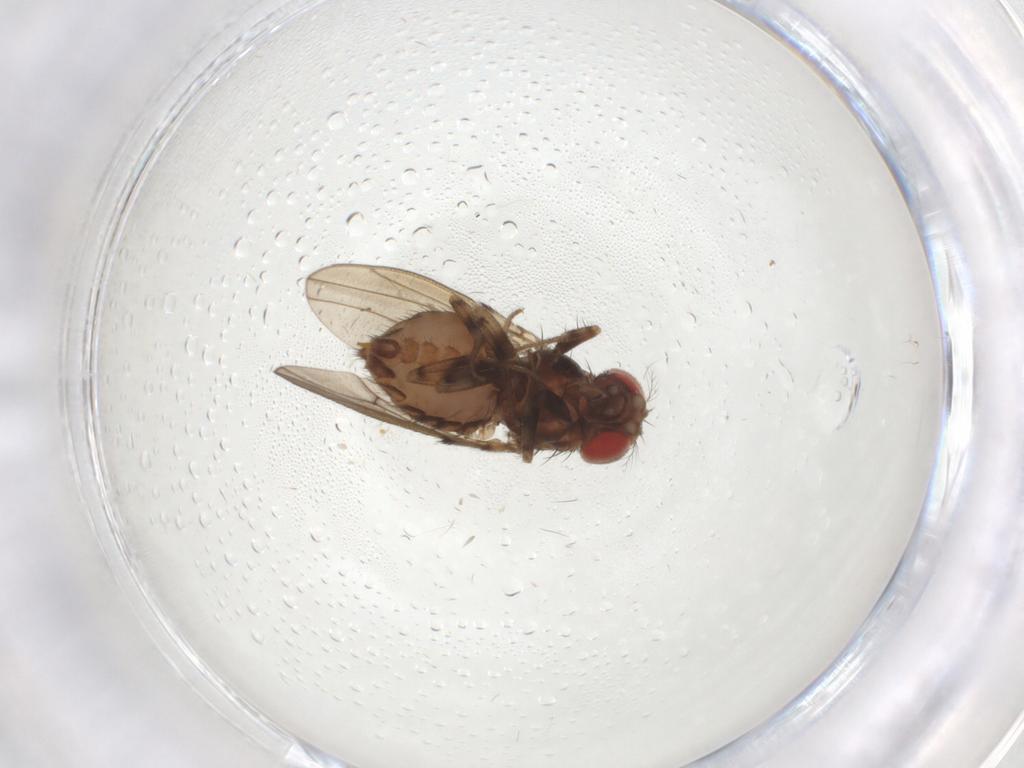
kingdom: Animalia
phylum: Arthropoda
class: Insecta
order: Diptera
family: Drosophilidae
